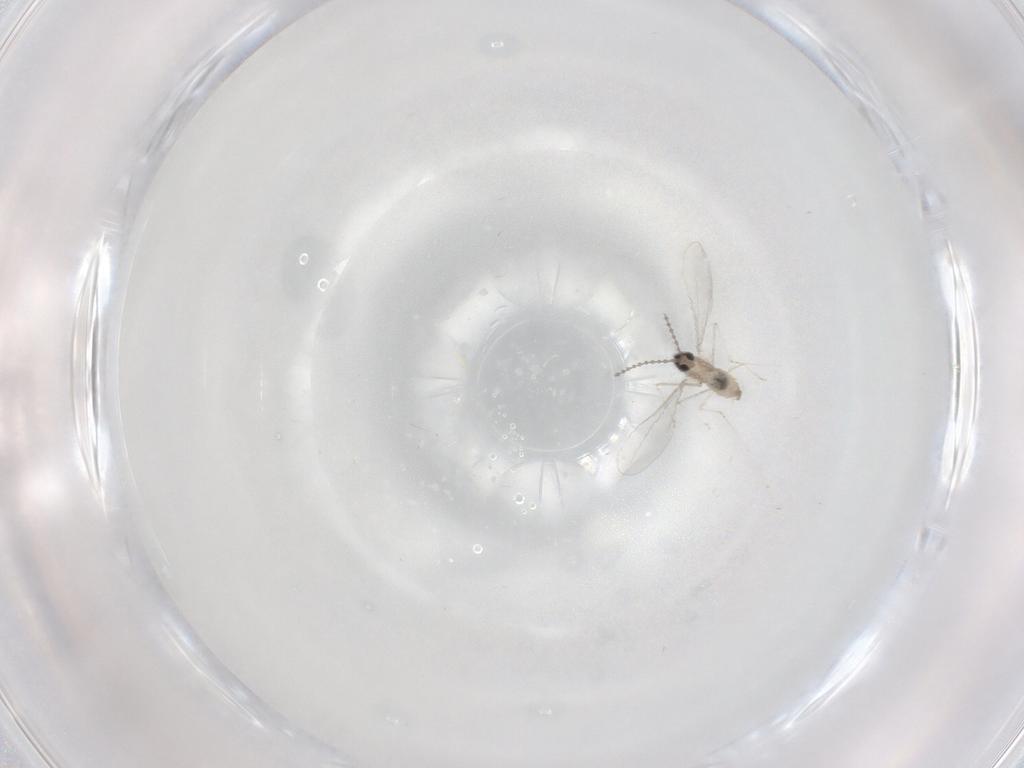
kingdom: Animalia
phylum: Arthropoda
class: Insecta
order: Diptera
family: Cecidomyiidae
